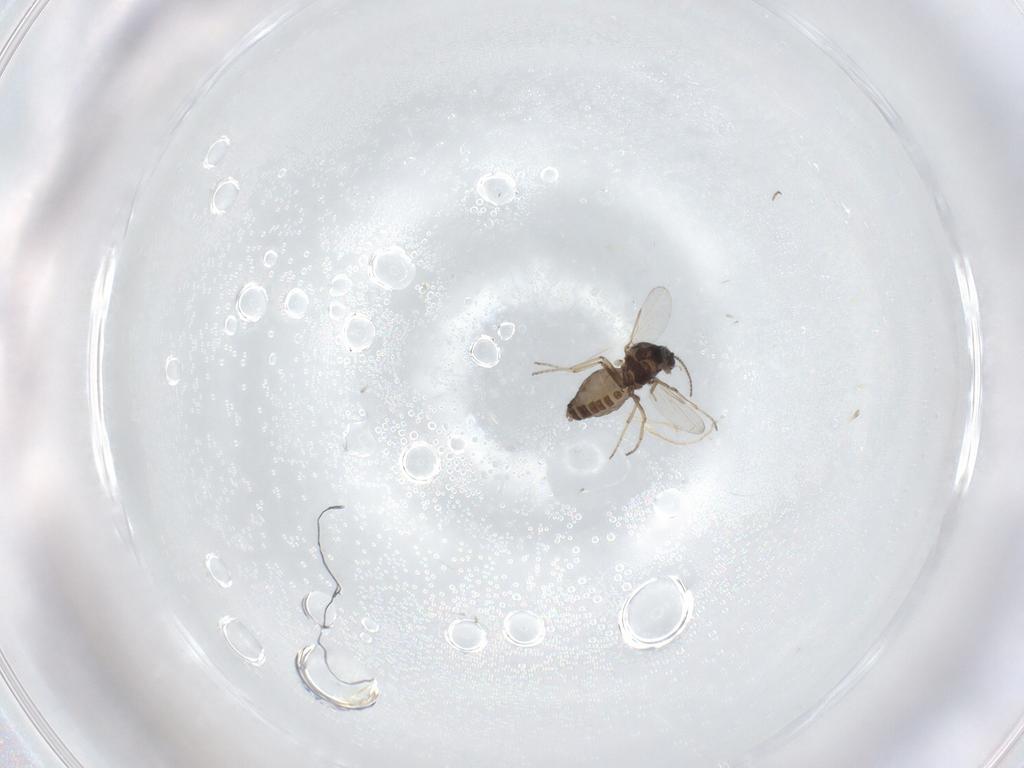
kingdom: Animalia
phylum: Arthropoda
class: Insecta
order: Diptera
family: Ceratopogonidae
